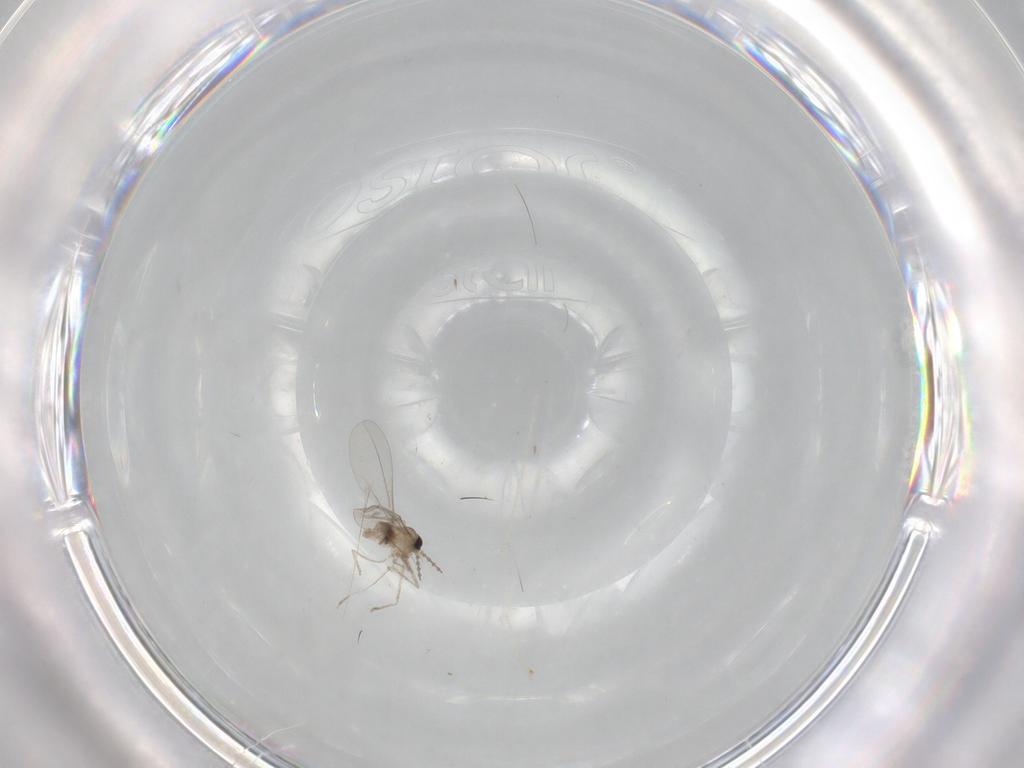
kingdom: Animalia
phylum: Arthropoda
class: Insecta
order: Diptera
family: Cecidomyiidae
